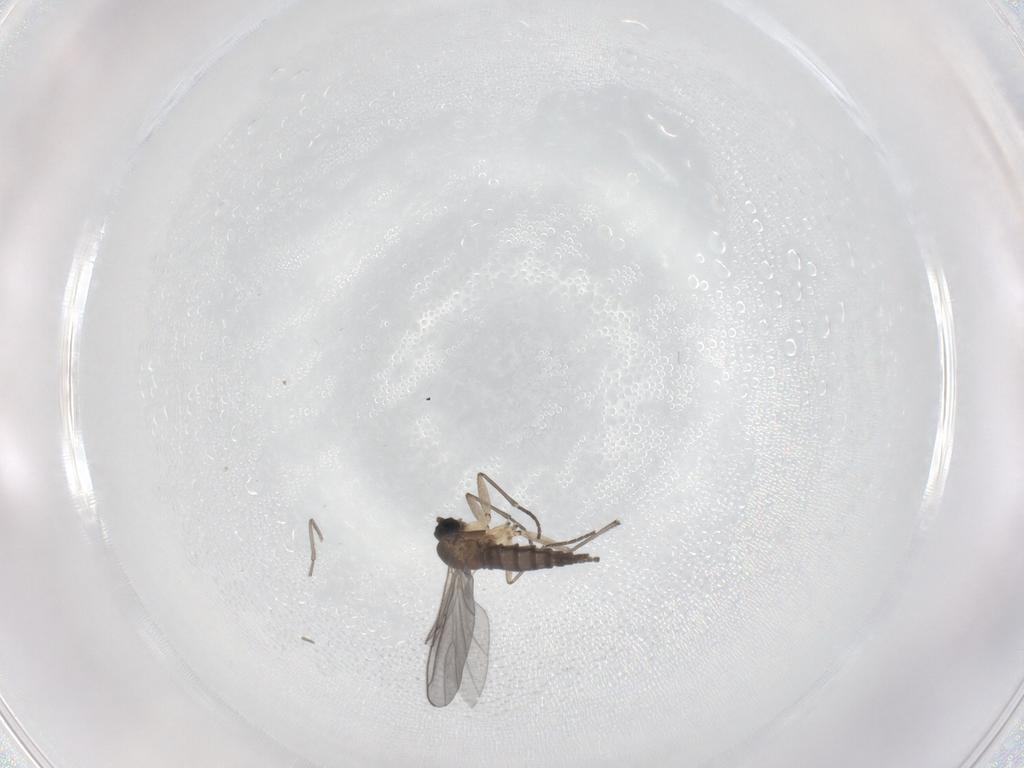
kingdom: Animalia
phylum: Arthropoda
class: Insecta
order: Diptera
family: Sciaridae
